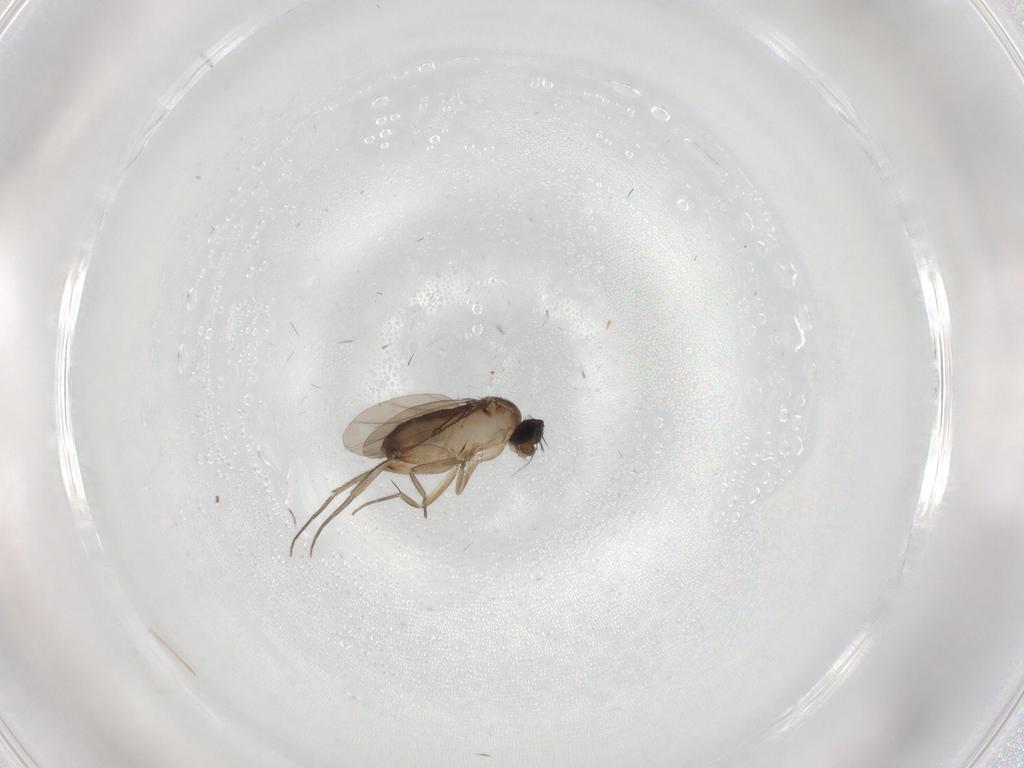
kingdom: Animalia
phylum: Arthropoda
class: Insecta
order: Diptera
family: Phoridae
